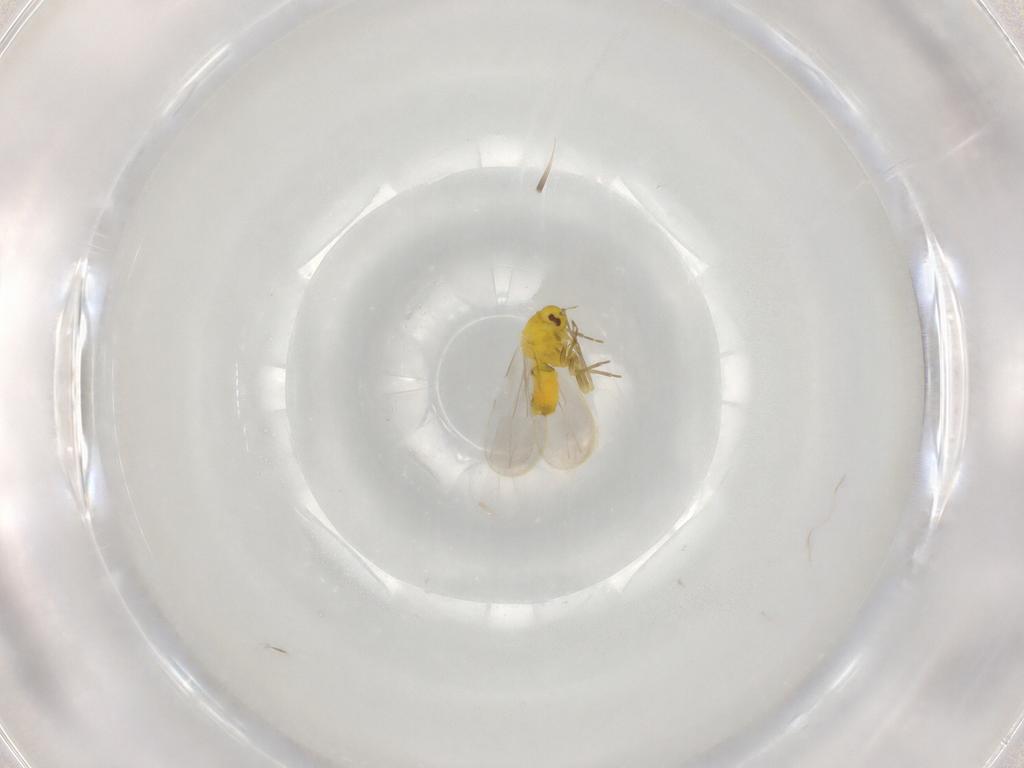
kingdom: Animalia
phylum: Arthropoda
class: Insecta
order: Hemiptera
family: Aleyrodidae
